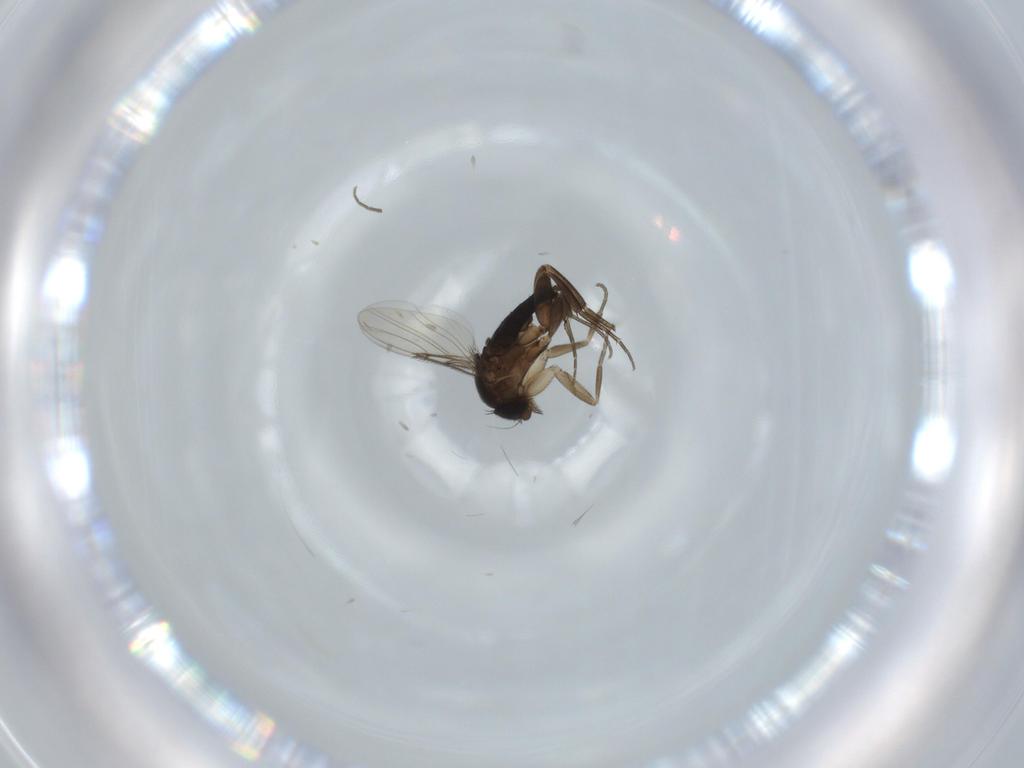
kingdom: Animalia
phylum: Arthropoda
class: Insecta
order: Diptera
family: Phoridae
